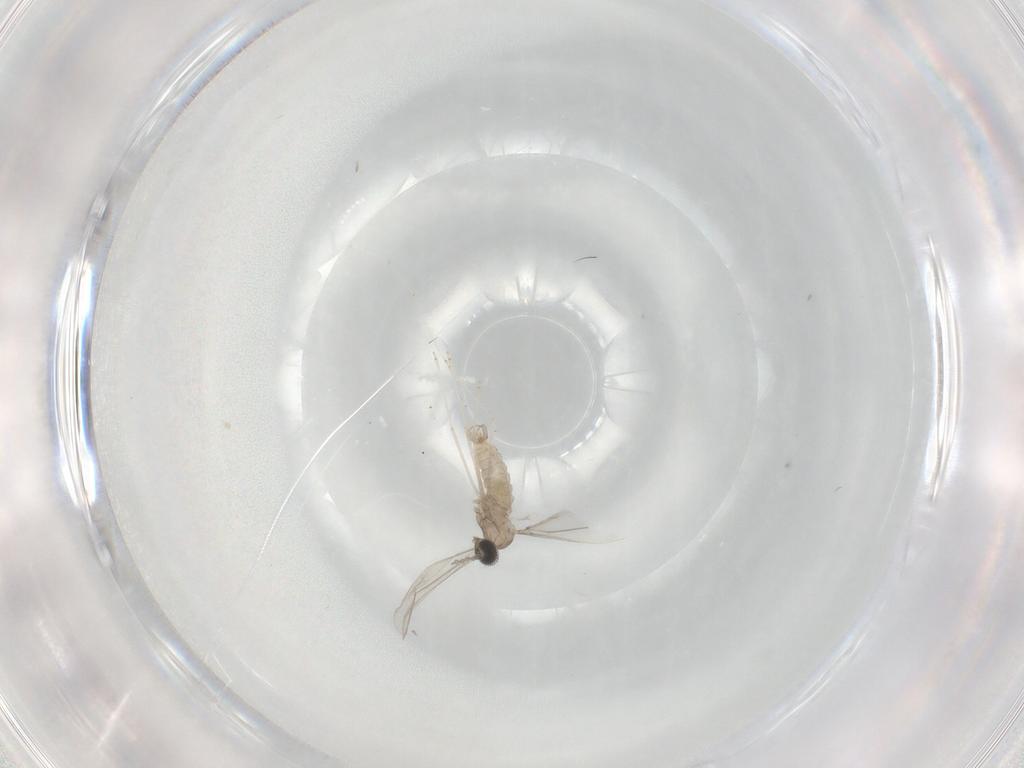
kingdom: Animalia
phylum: Arthropoda
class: Insecta
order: Diptera
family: Cecidomyiidae
